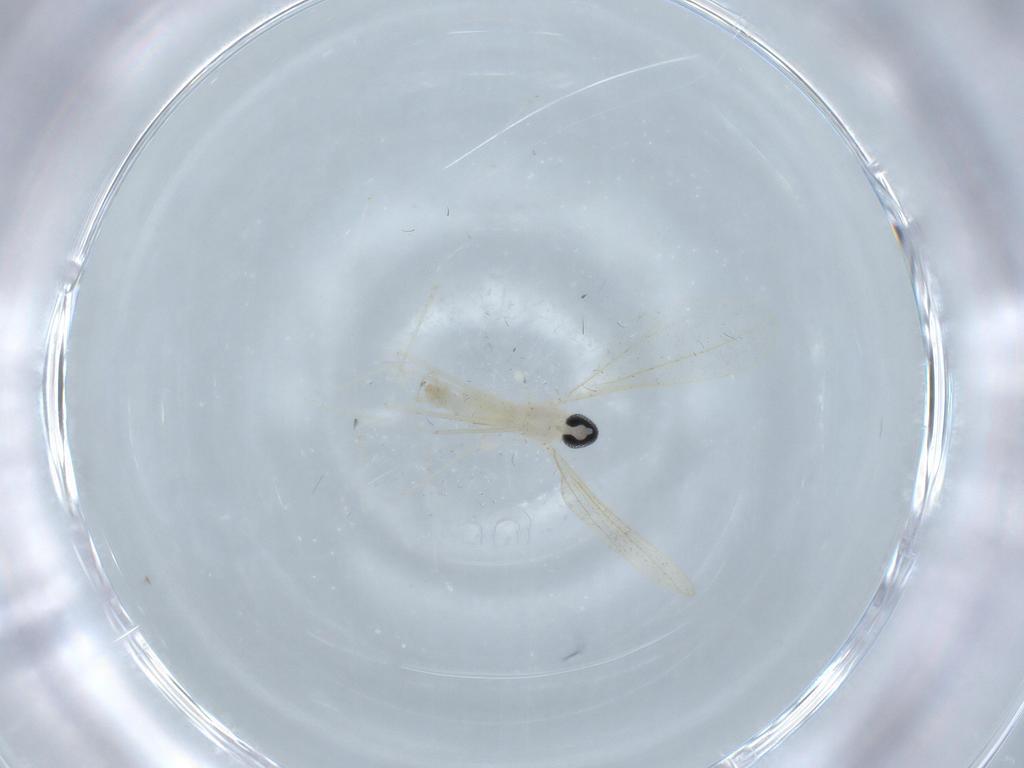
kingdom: Animalia
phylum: Arthropoda
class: Insecta
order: Diptera
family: Cecidomyiidae
